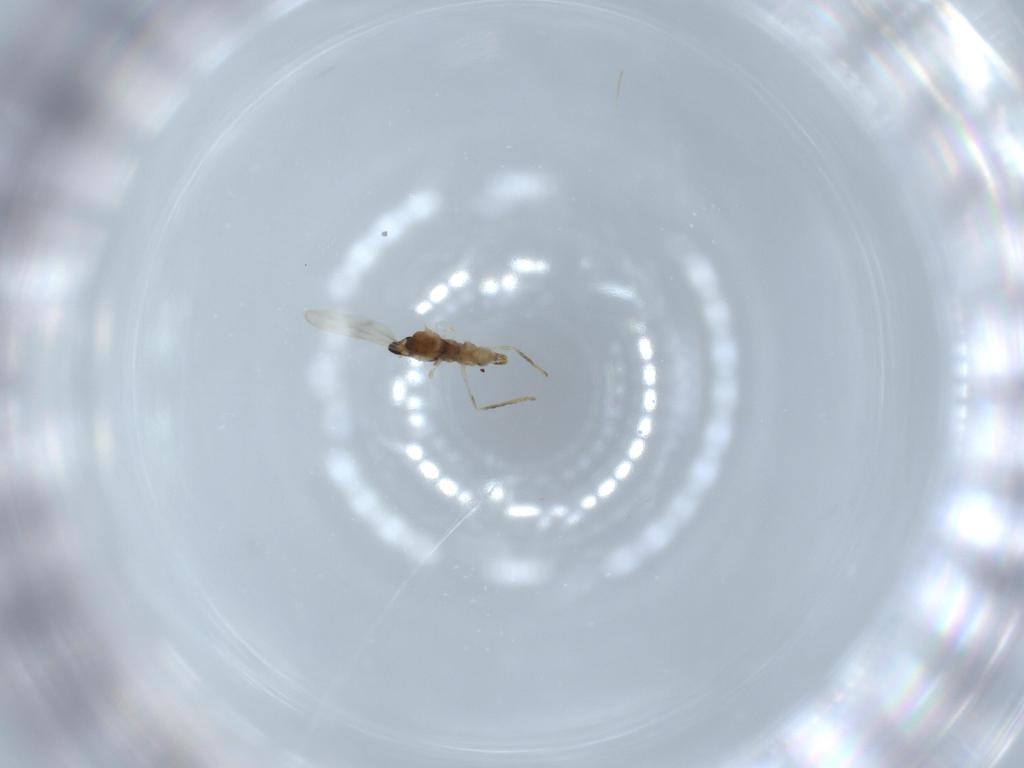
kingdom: Animalia
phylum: Arthropoda
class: Insecta
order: Diptera
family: Cecidomyiidae
